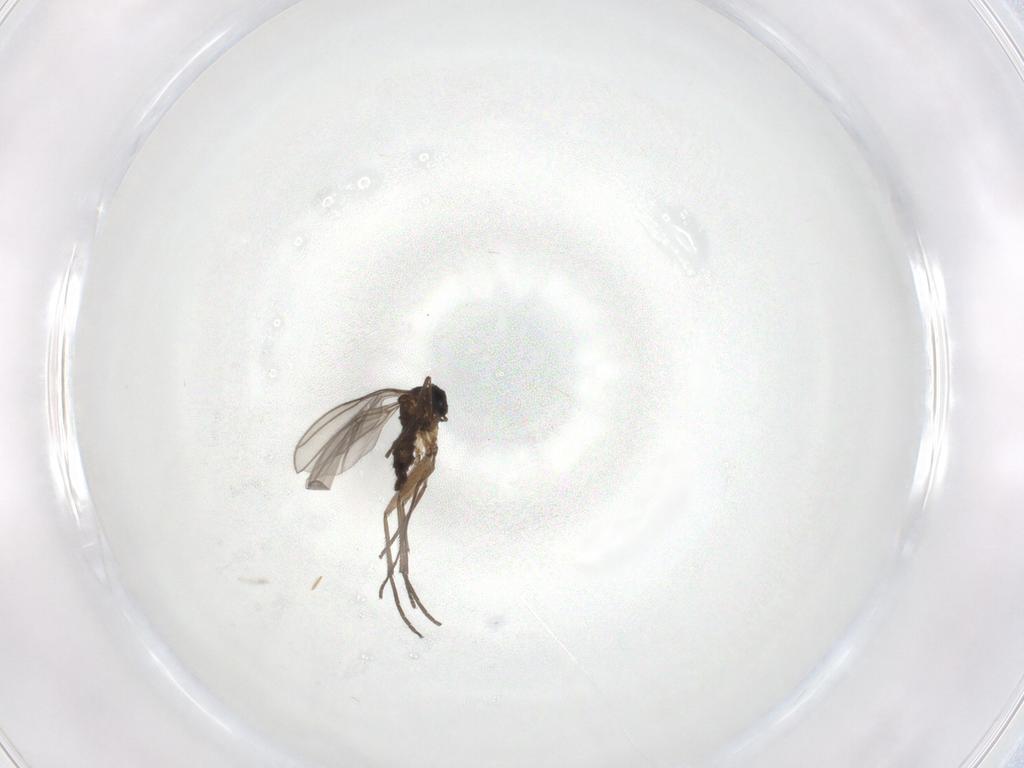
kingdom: Animalia
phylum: Arthropoda
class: Insecta
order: Diptera
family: Sciaridae
